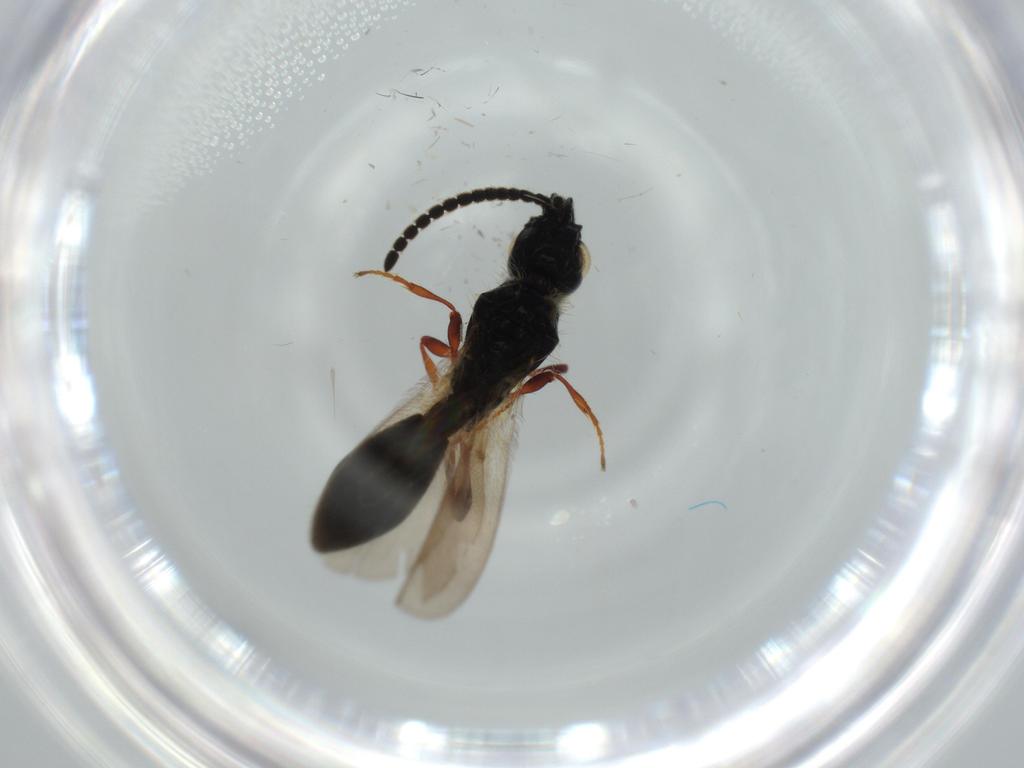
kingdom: Animalia
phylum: Arthropoda
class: Insecta
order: Hymenoptera
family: Diapriidae
